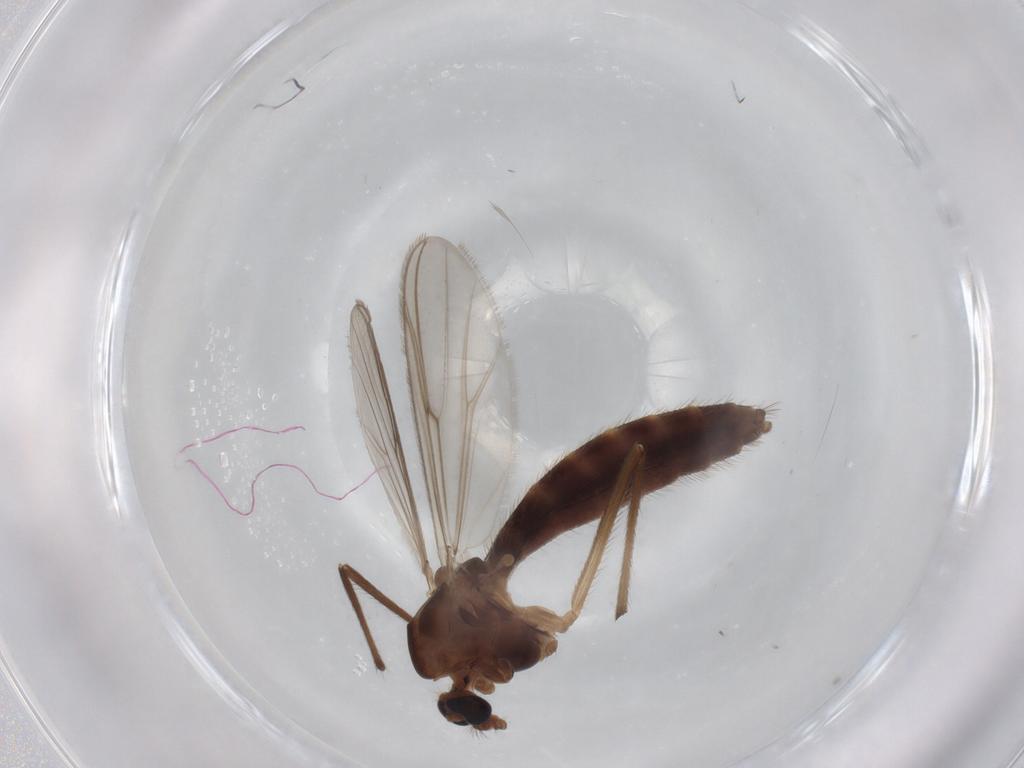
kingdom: Animalia
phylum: Arthropoda
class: Insecta
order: Diptera
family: Chironomidae
